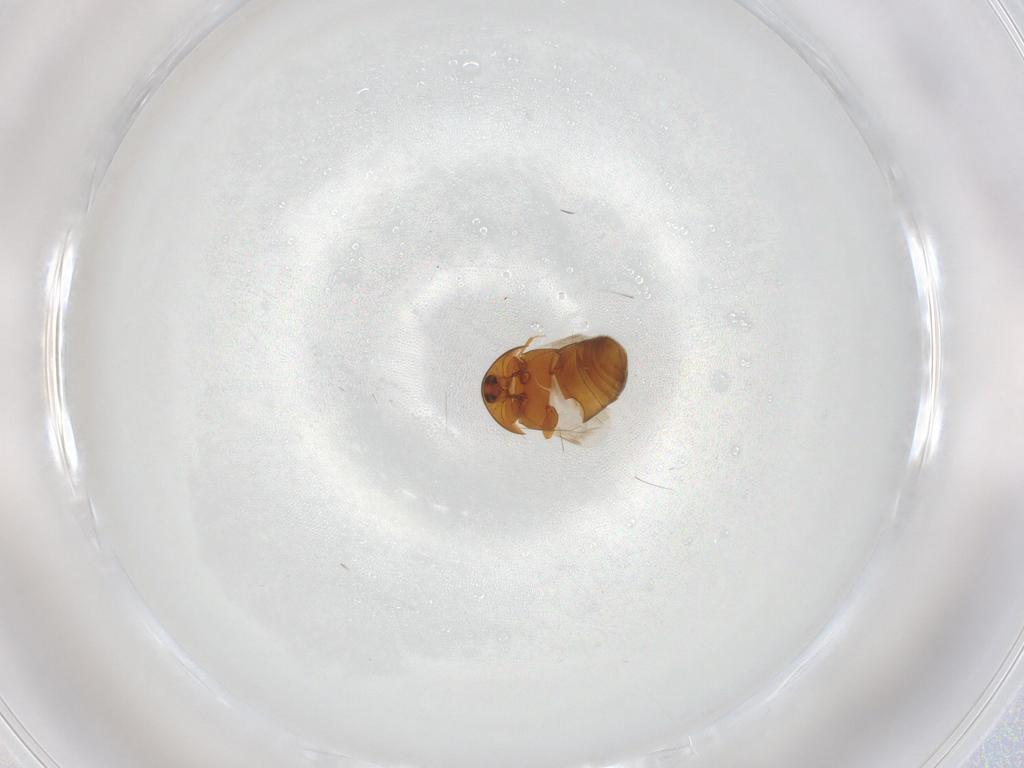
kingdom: Animalia
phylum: Arthropoda
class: Insecta
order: Coleoptera
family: Corylophidae
